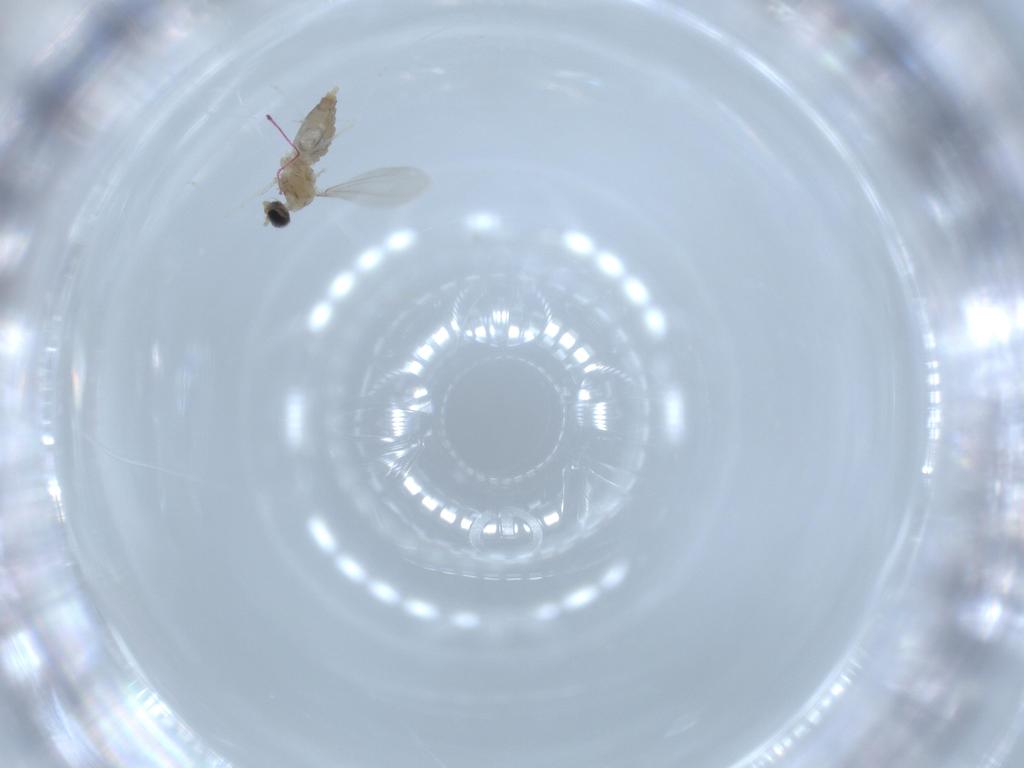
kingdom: Animalia
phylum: Arthropoda
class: Insecta
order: Diptera
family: Cecidomyiidae
